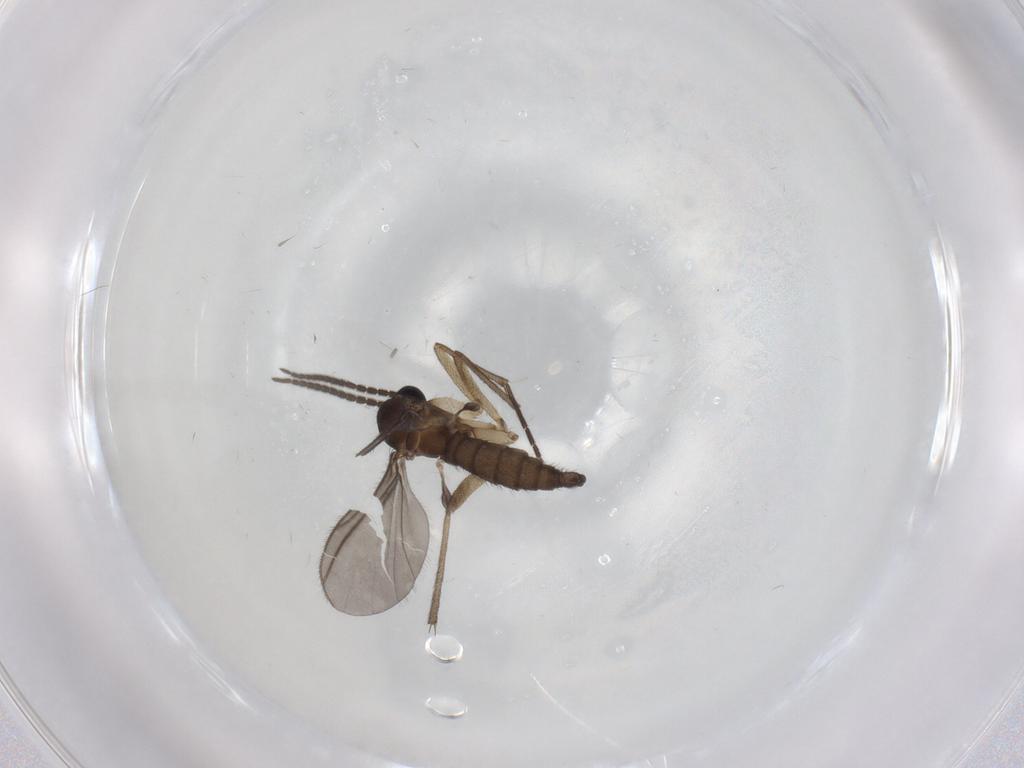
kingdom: Animalia
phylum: Arthropoda
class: Insecta
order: Diptera
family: Sciaridae
